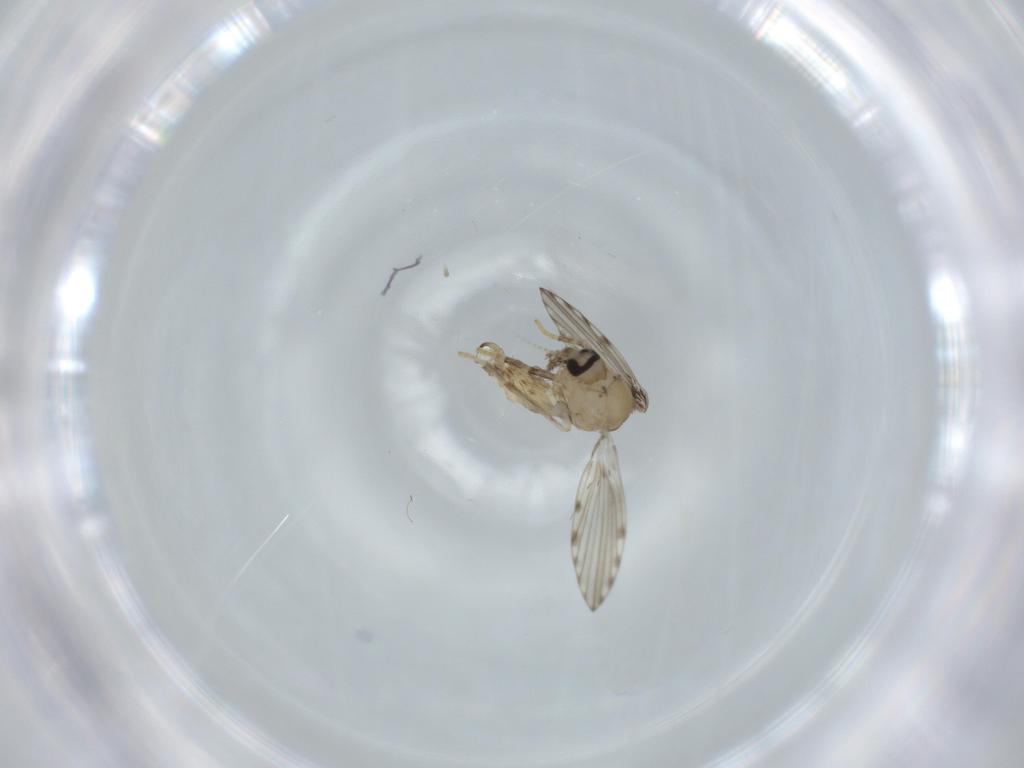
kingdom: Animalia
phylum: Arthropoda
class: Insecta
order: Diptera
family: Psychodidae
